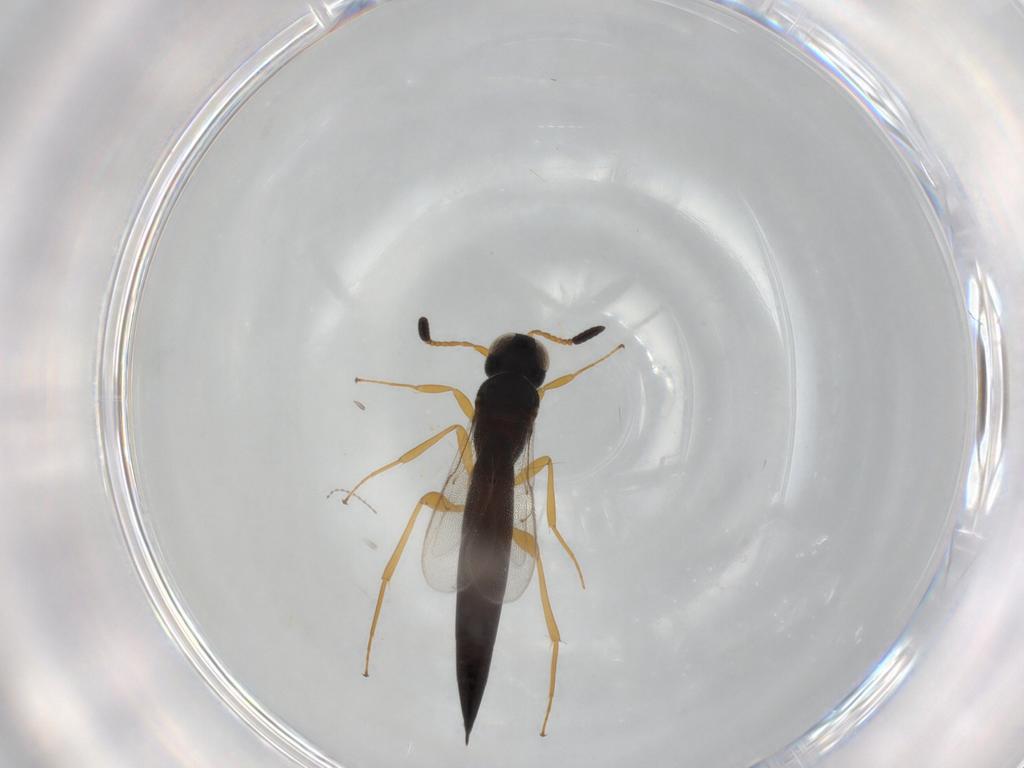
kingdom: Animalia
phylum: Arthropoda
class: Insecta
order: Hymenoptera
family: Scelionidae
